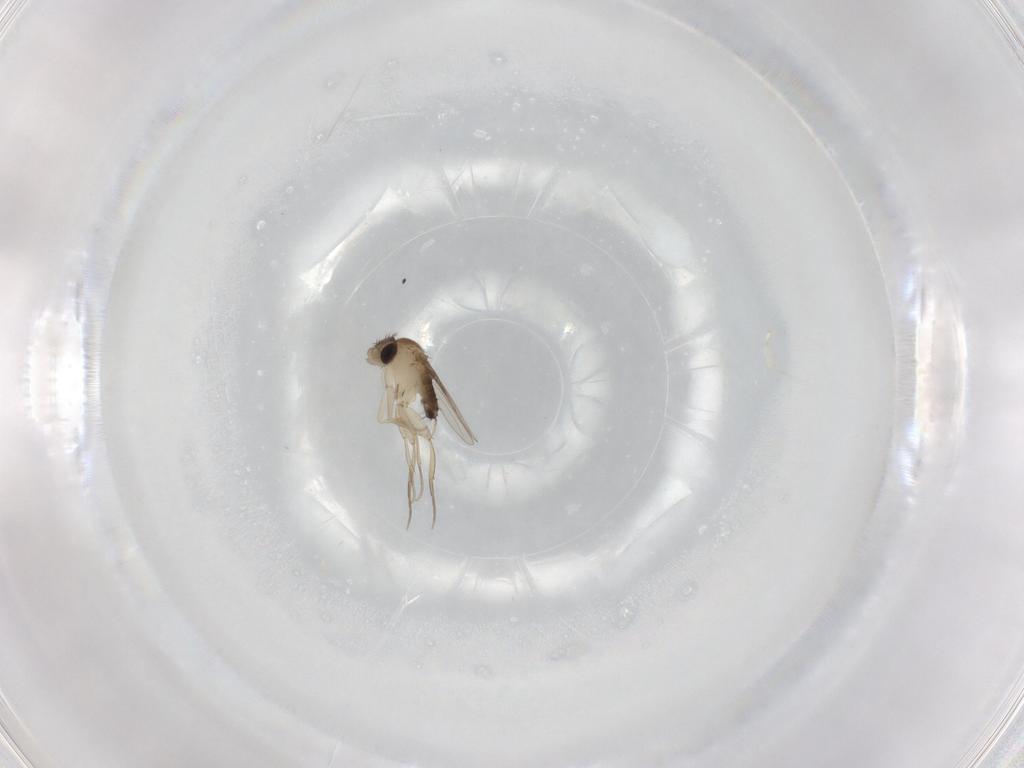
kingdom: Animalia
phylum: Arthropoda
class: Insecta
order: Diptera
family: Phoridae
